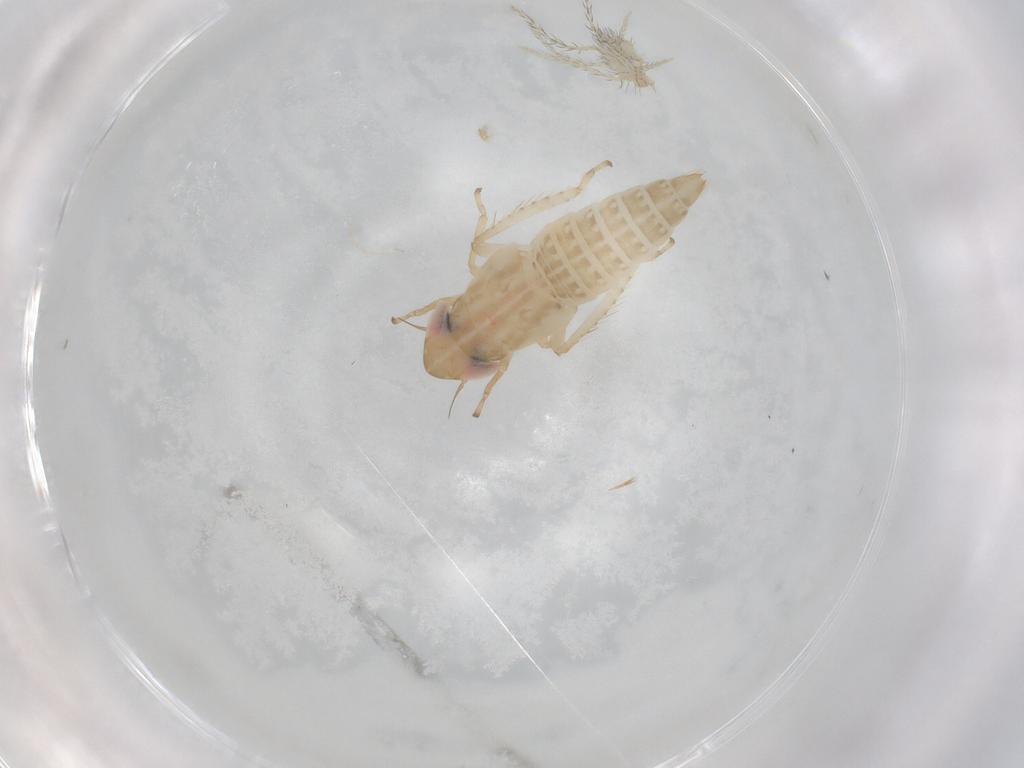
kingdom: Animalia
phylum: Arthropoda
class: Insecta
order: Hemiptera
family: Cicadellidae
